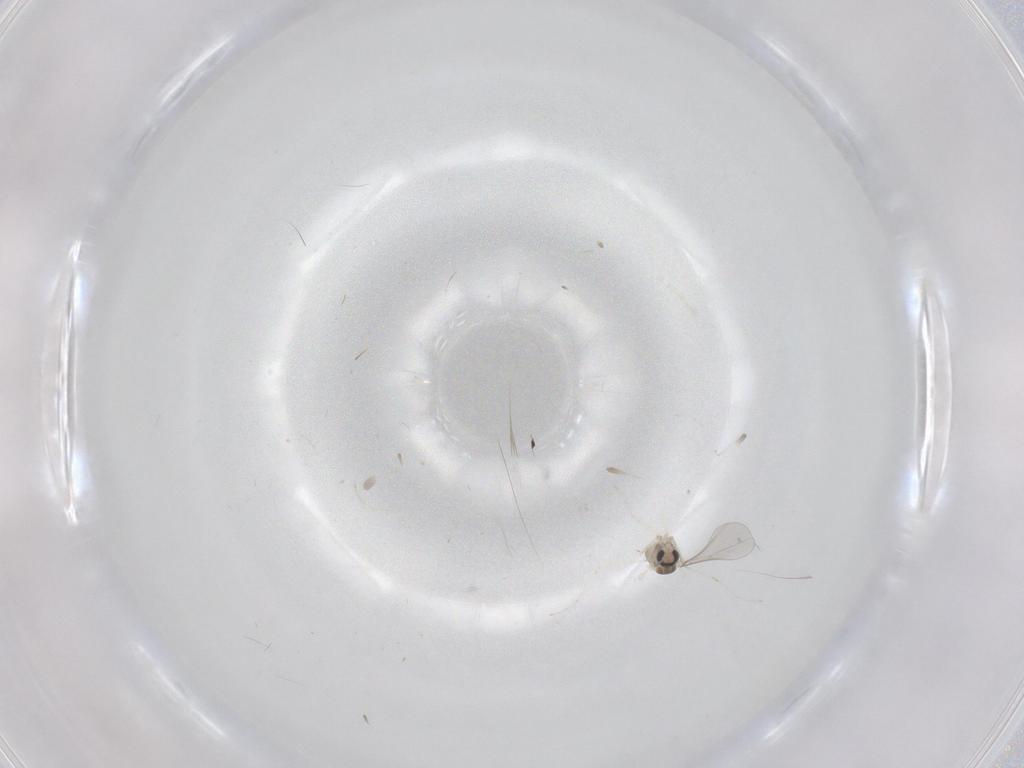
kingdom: Animalia
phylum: Arthropoda
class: Insecta
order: Diptera
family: Cecidomyiidae
